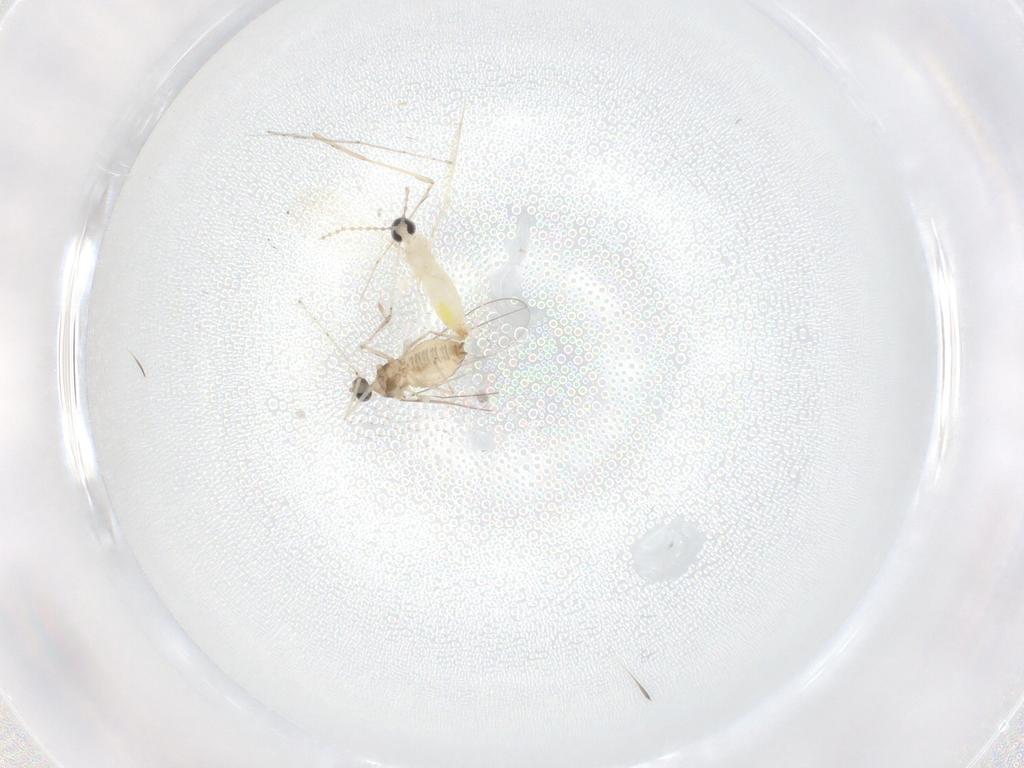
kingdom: Animalia
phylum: Arthropoda
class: Insecta
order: Diptera
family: Cecidomyiidae
